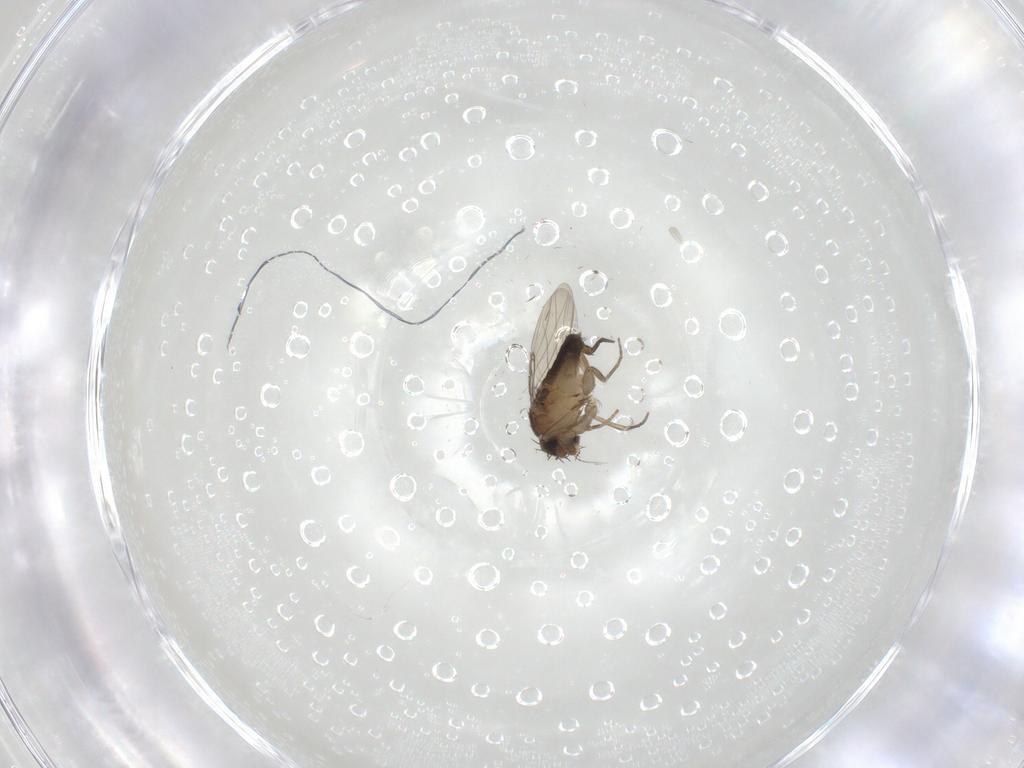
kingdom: Animalia
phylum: Arthropoda
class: Insecta
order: Diptera
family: Phoridae
